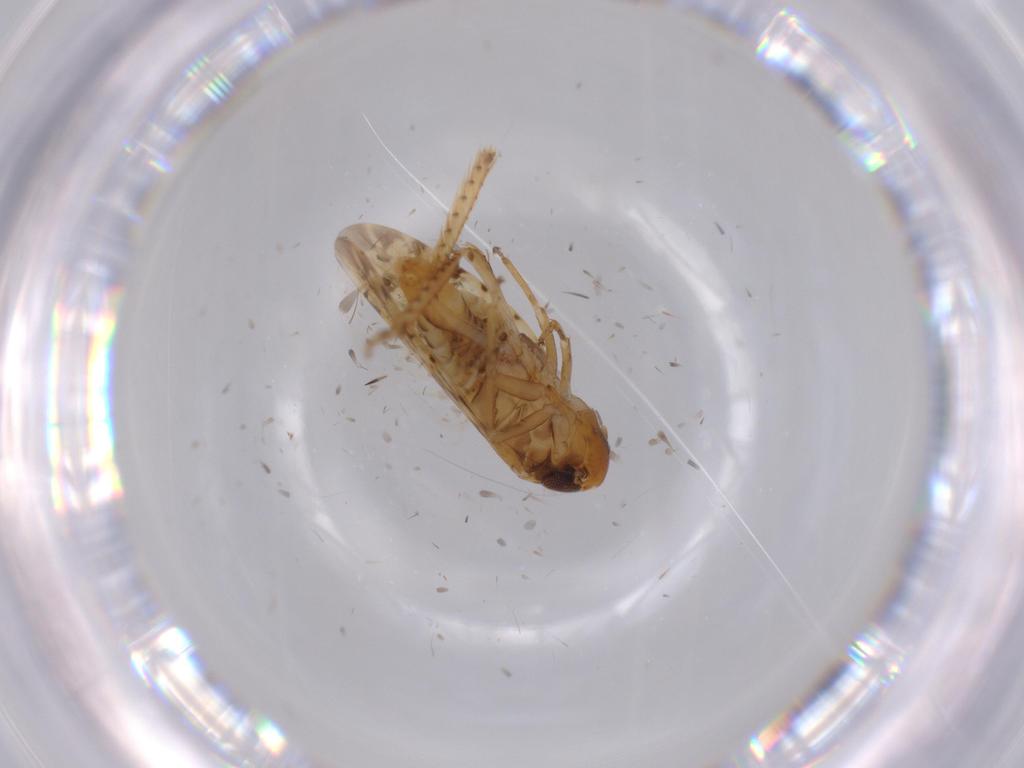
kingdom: Animalia
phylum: Arthropoda
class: Insecta
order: Hemiptera
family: Cicadellidae
